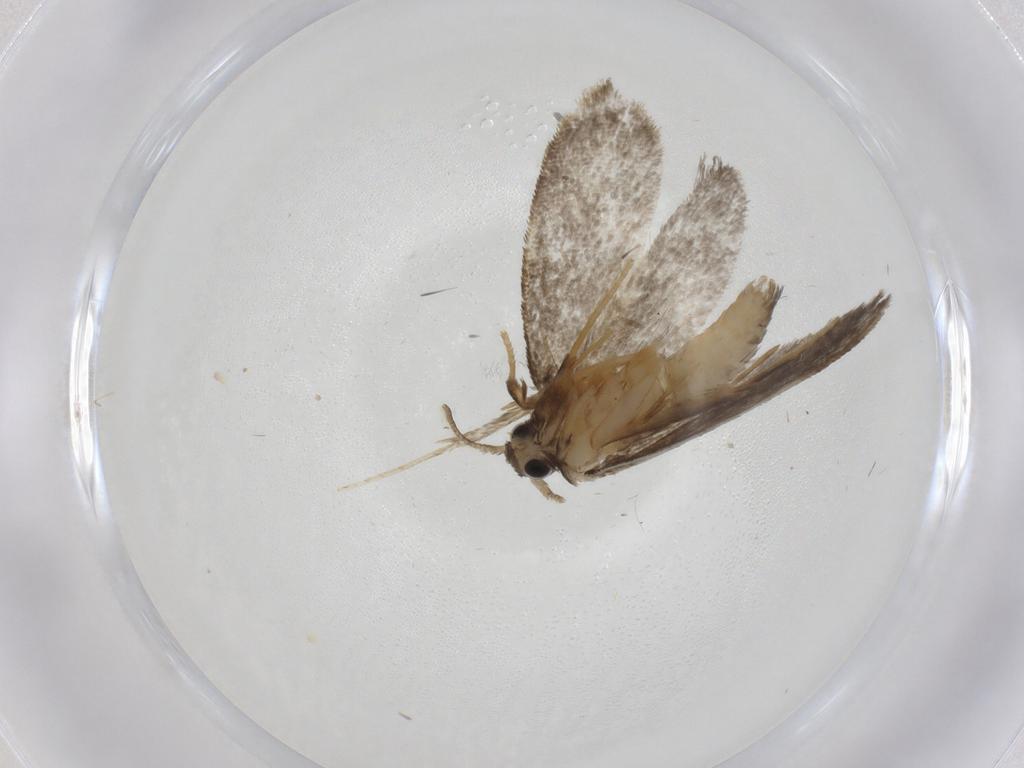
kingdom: Animalia
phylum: Arthropoda
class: Insecta
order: Lepidoptera
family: Psychidae
